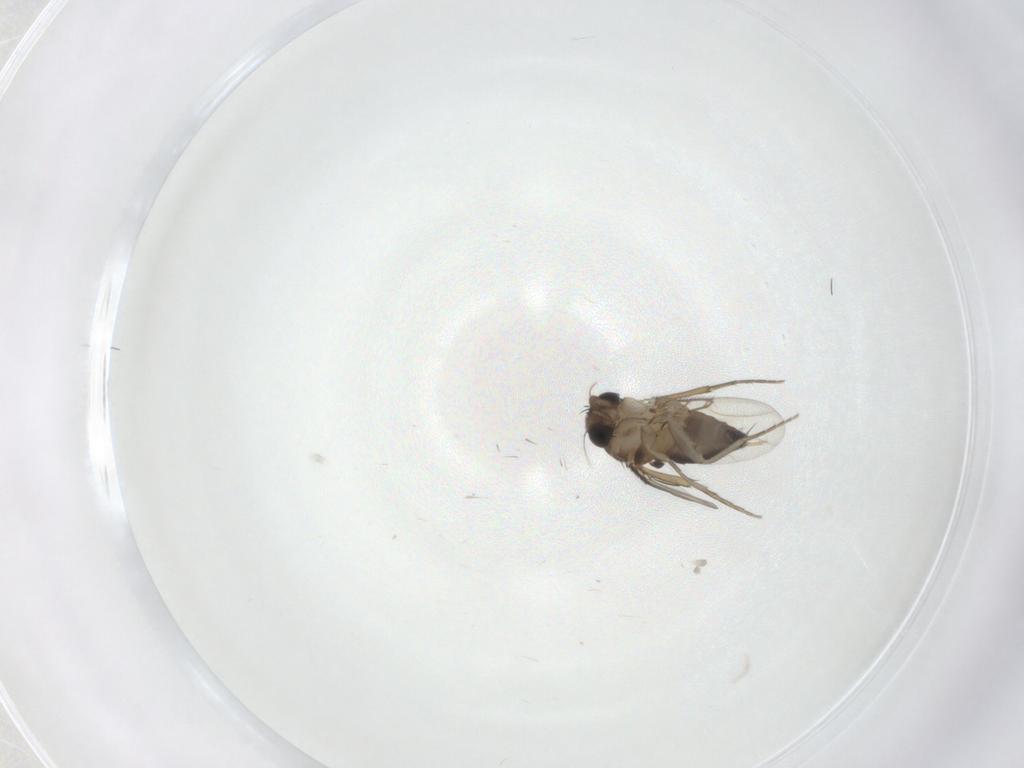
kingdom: Animalia
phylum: Arthropoda
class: Insecta
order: Diptera
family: Phoridae
